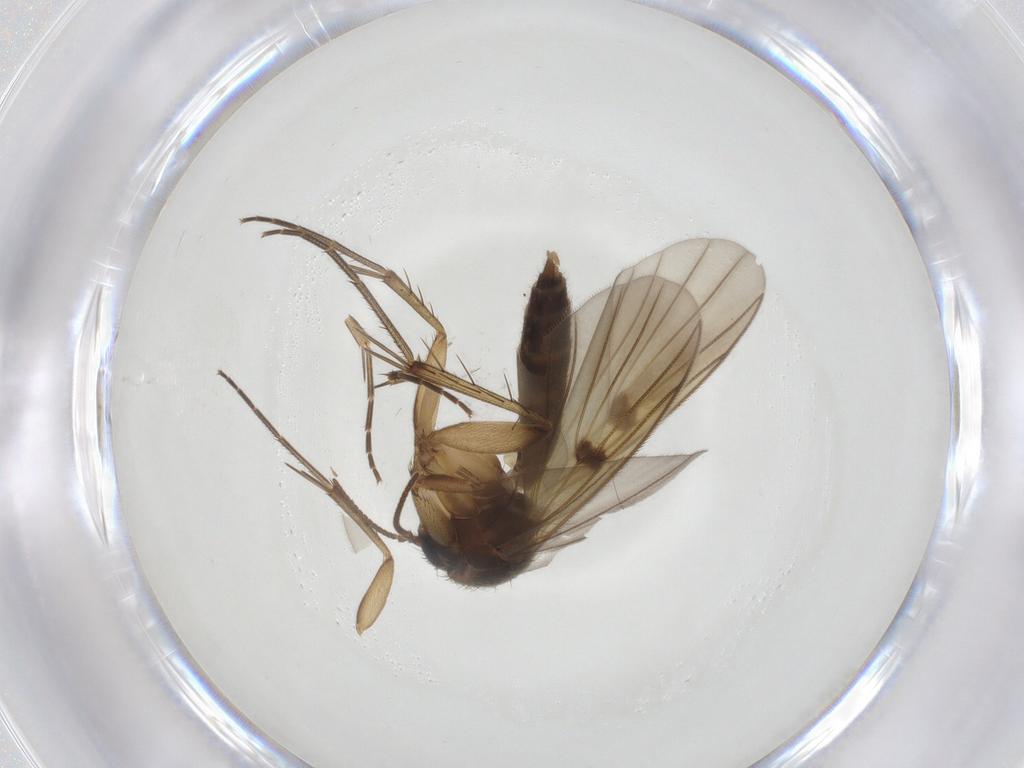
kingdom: Animalia
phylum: Arthropoda
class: Insecta
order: Diptera
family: Mycetophilidae
